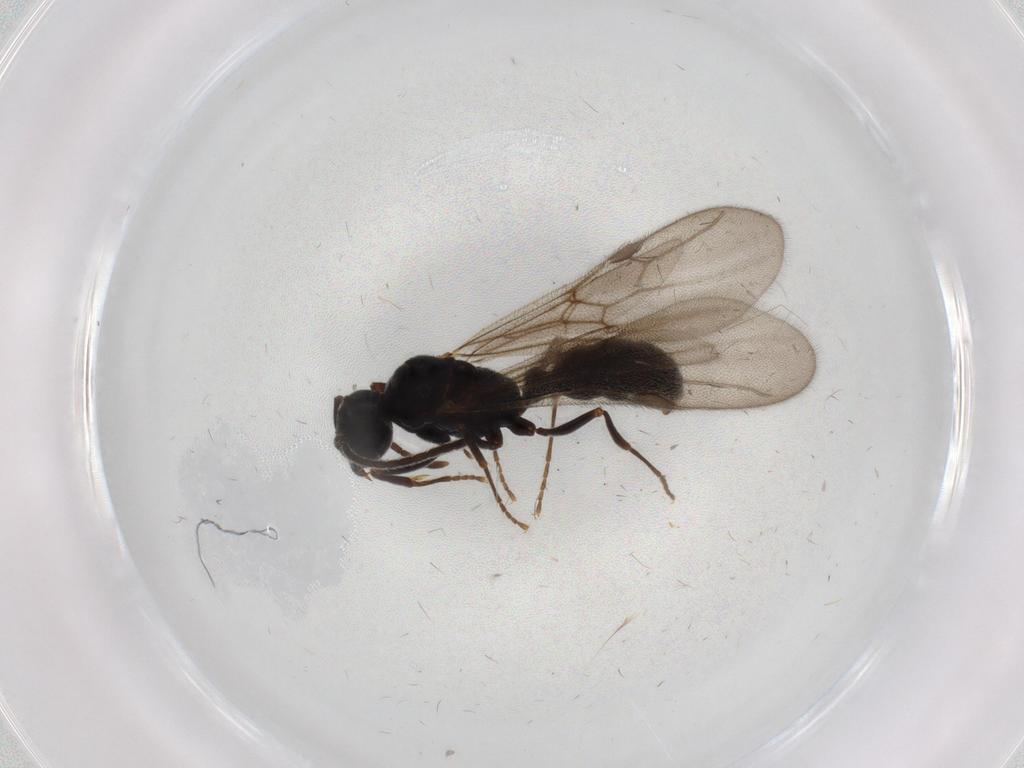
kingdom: Animalia
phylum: Arthropoda
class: Insecta
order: Hymenoptera
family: Formicidae
